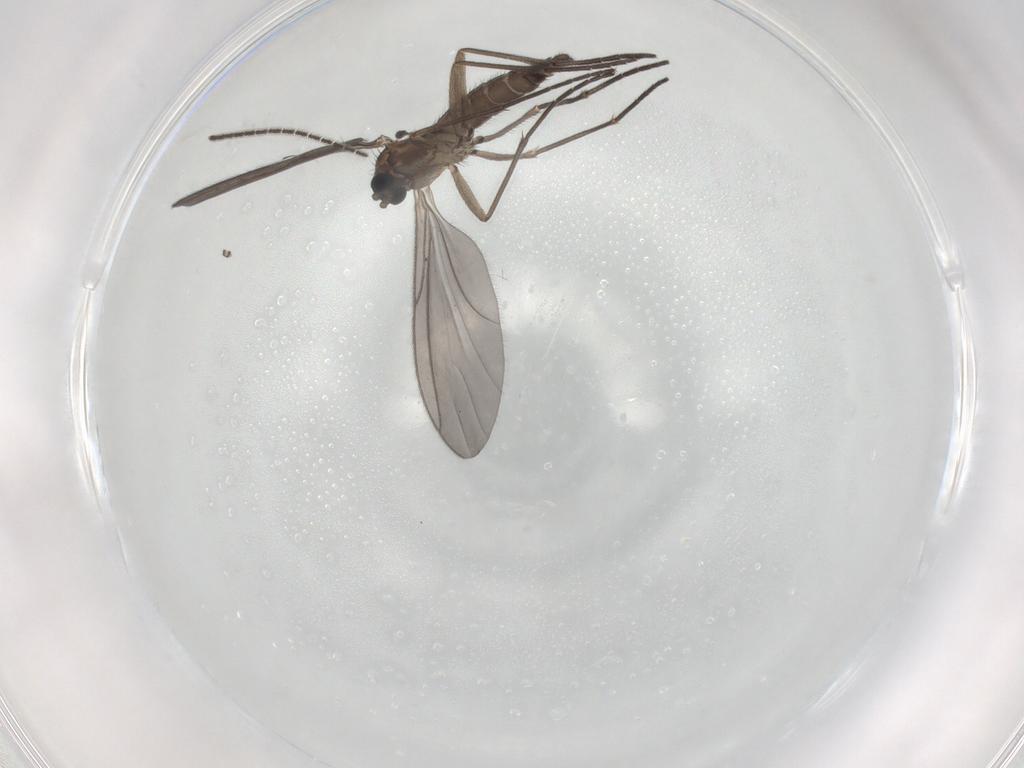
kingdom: Animalia
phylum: Arthropoda
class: Insecta
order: Diptera
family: Sciaridae
